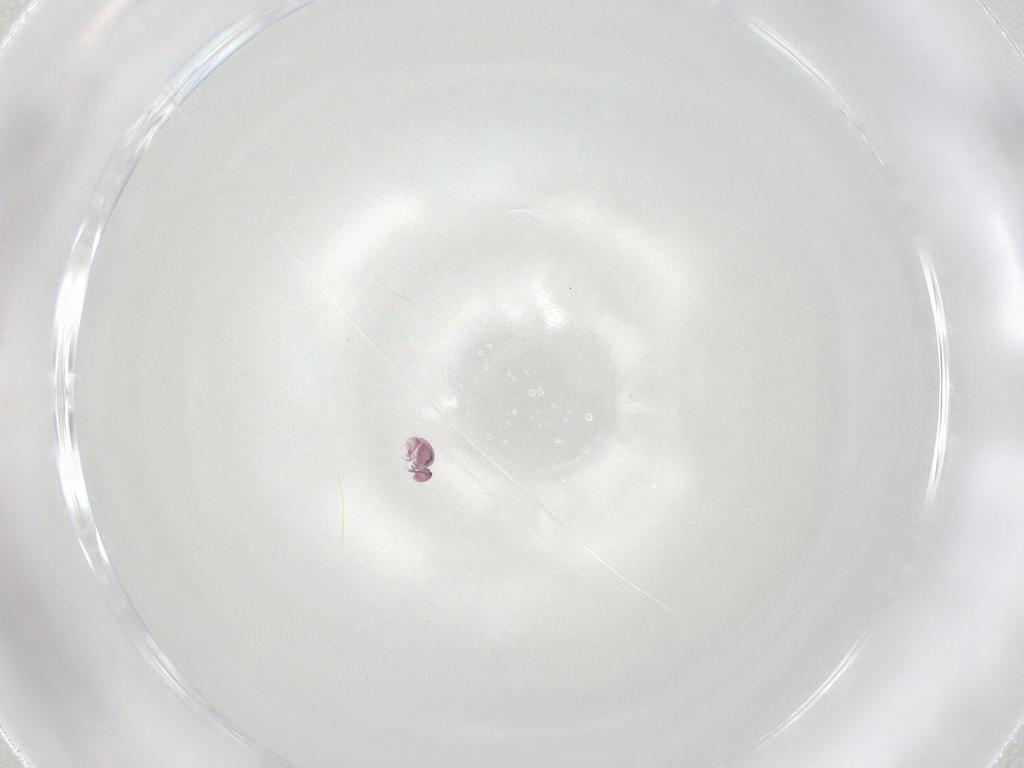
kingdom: Animalia
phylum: Arthropoda
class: Collembola
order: Symphypleona
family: Sminthurididae
